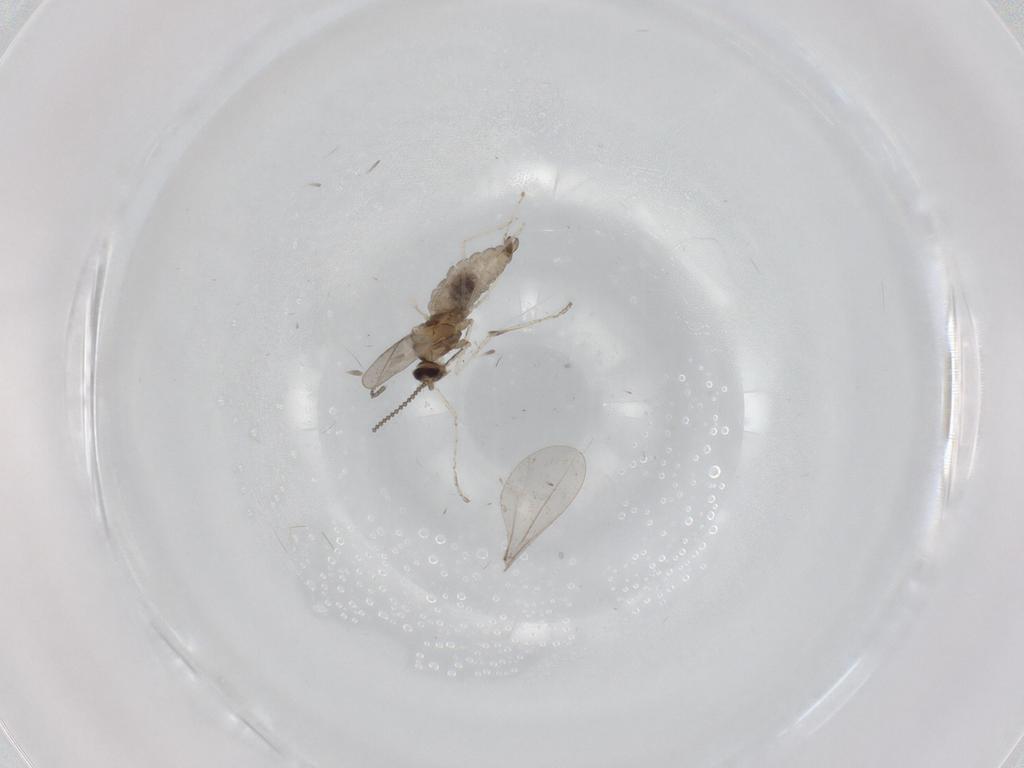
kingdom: Animalia
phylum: Arthropoda
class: Insecta
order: Diptera
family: Cecidomyiidae
